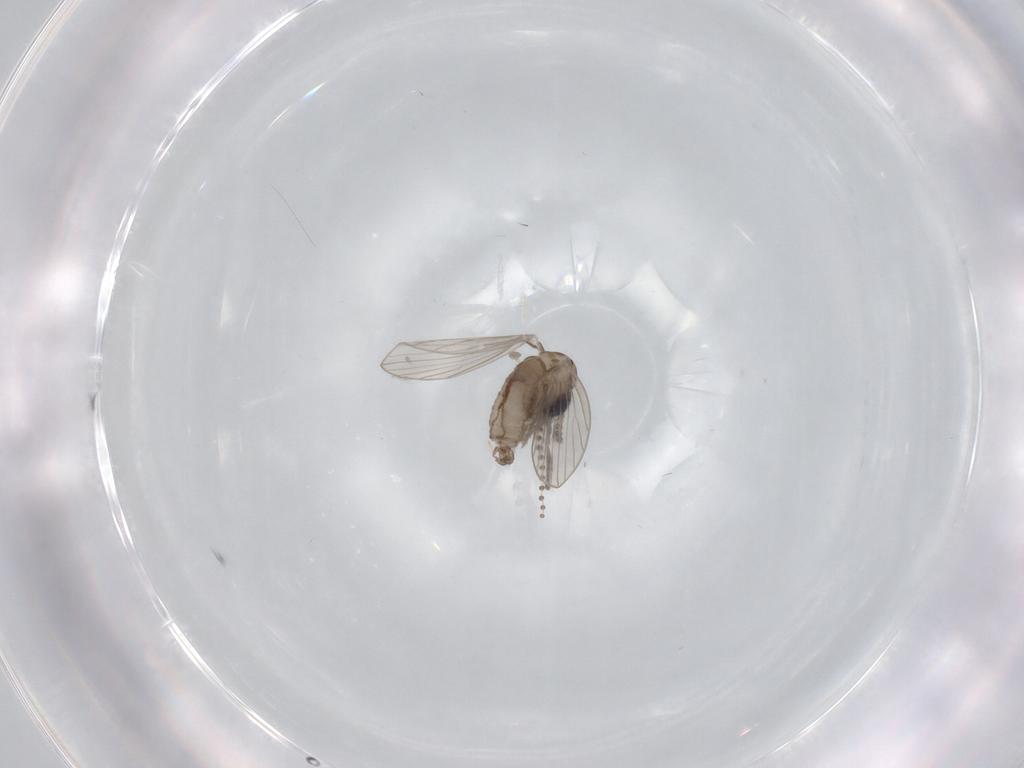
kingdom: Animalia
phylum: Arthropoda
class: Insecta
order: Diptera
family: Psychodidae
